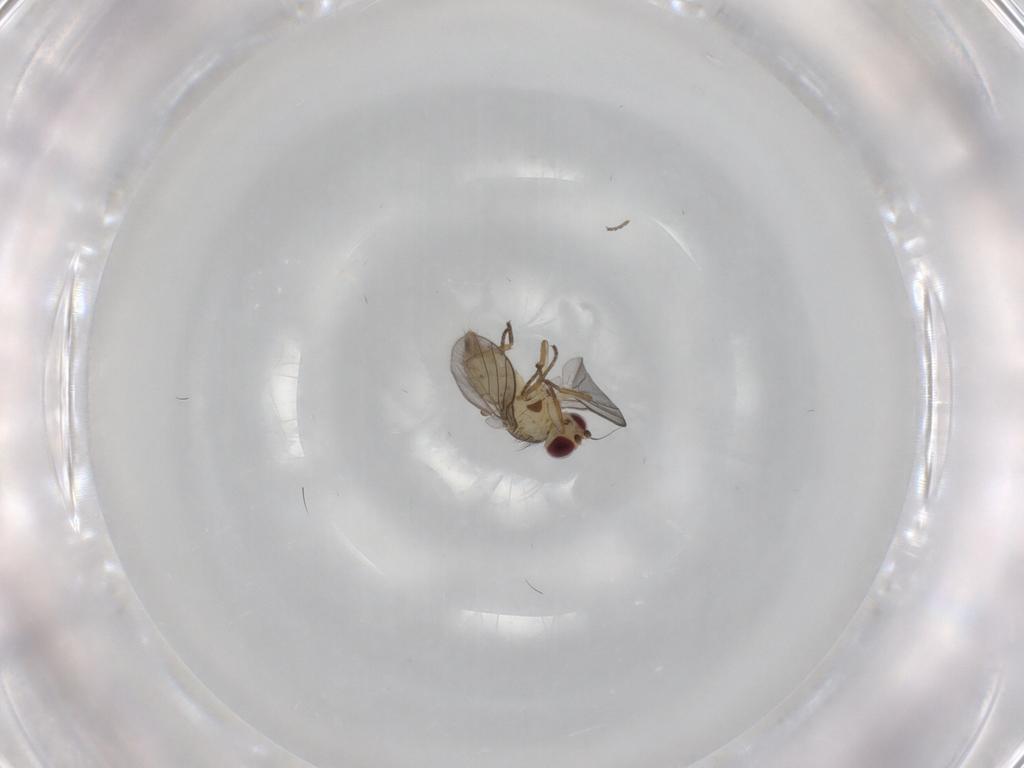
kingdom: Animalia
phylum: Arthropoda
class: Insecta
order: Diptera
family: Agromyzidae
